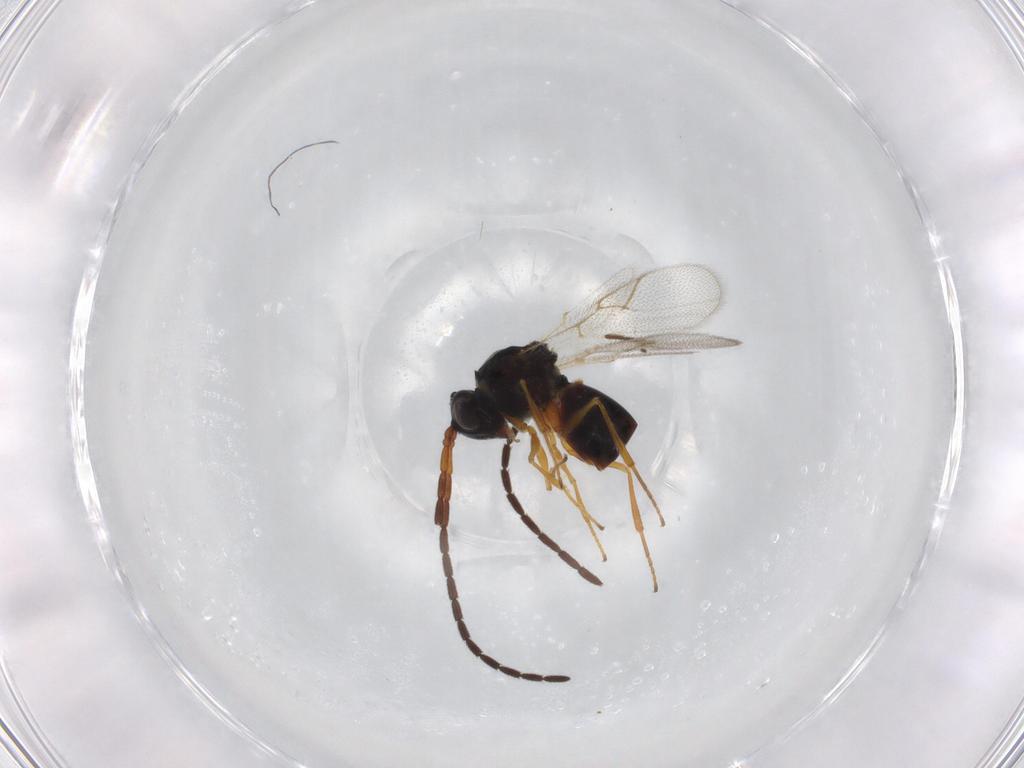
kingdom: Animalia
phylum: Arthropoda
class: Insecta
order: Hymenoptera
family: Figitidae
